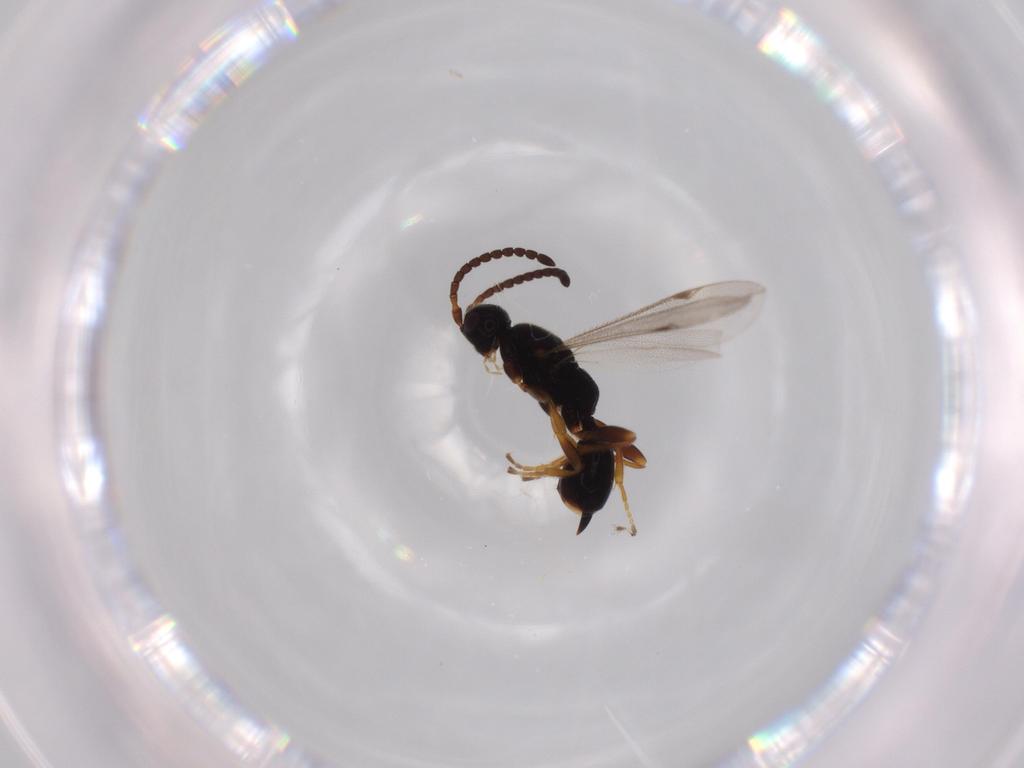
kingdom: Animalia
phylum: Arthropoda
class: Insecta
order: Hymenoptera
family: Proctotrupidae
